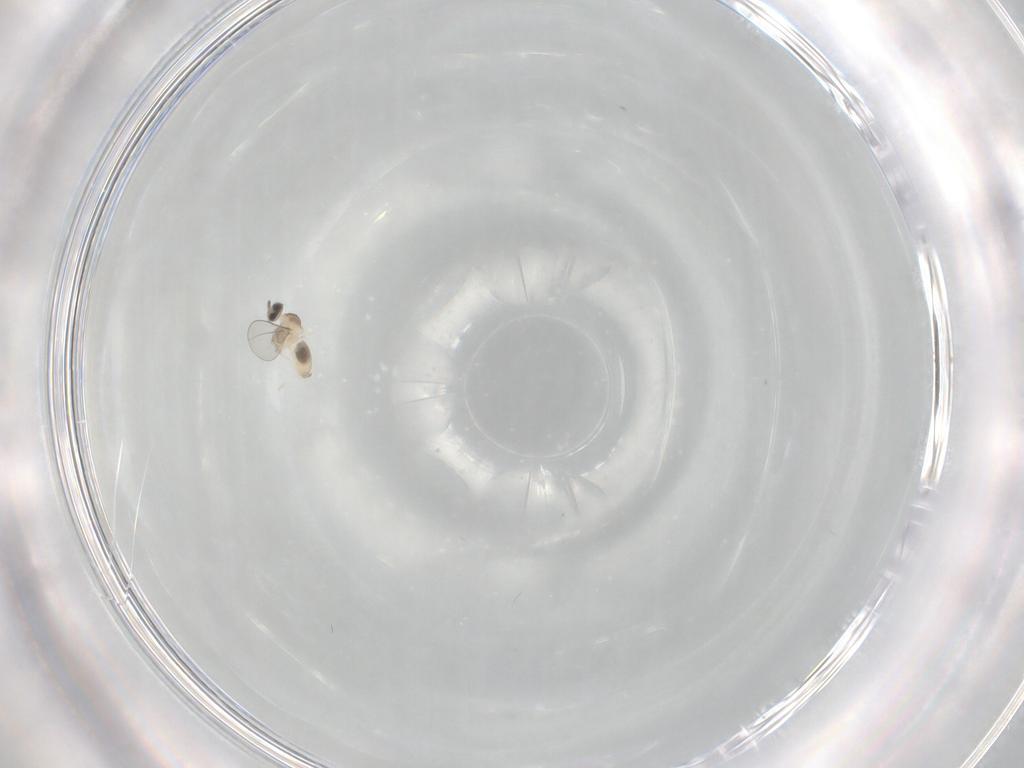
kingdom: Animalia
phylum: Arthropoda
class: Insecta
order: Diptera
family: Cecidomyiidae
